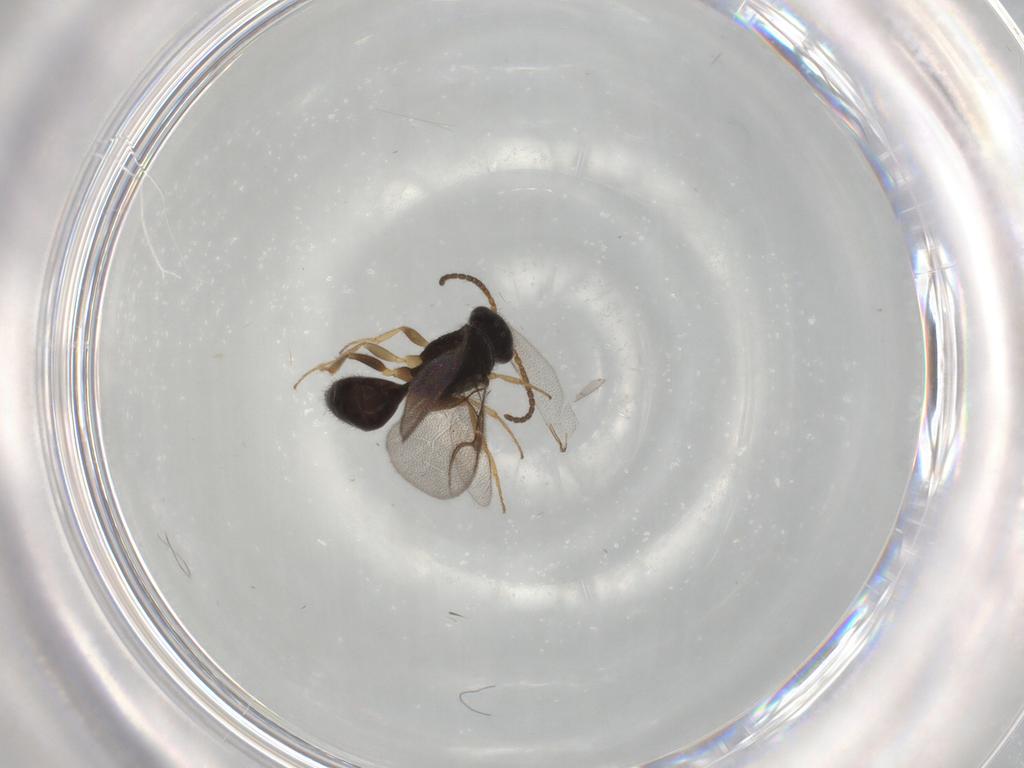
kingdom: Animalia
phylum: Arthropoda
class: Insecta
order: Hymenoptera
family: Bethylidae
